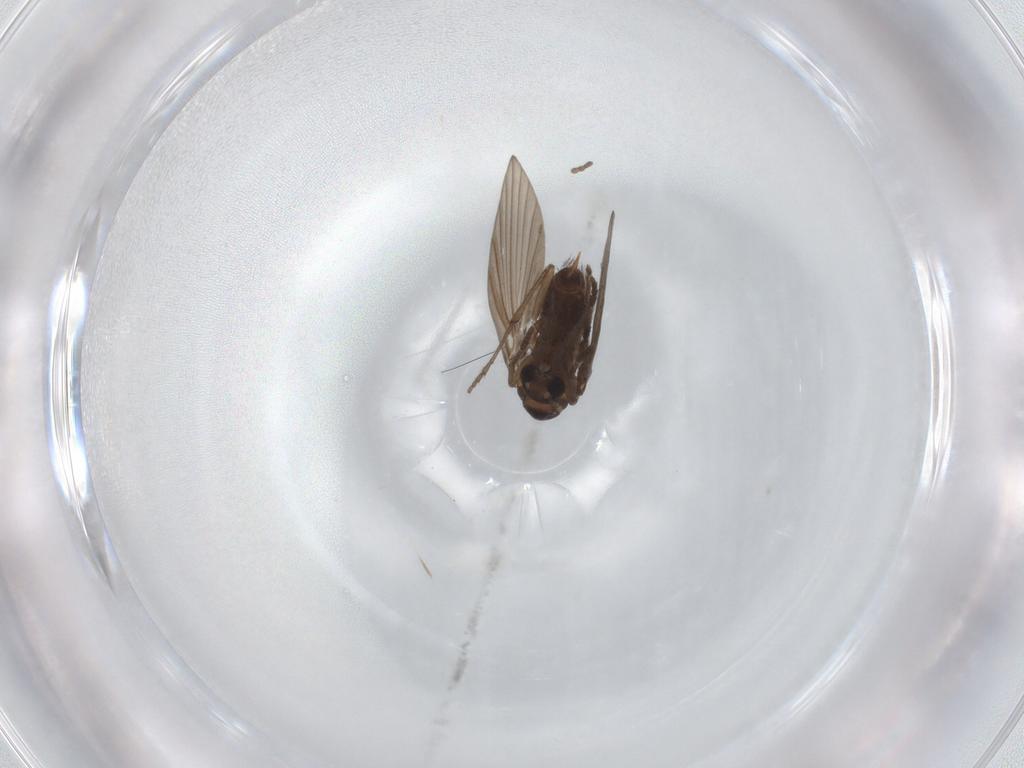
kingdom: Animalia
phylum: Arthropoda
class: Insecta
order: Diptera
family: Psychodidae
